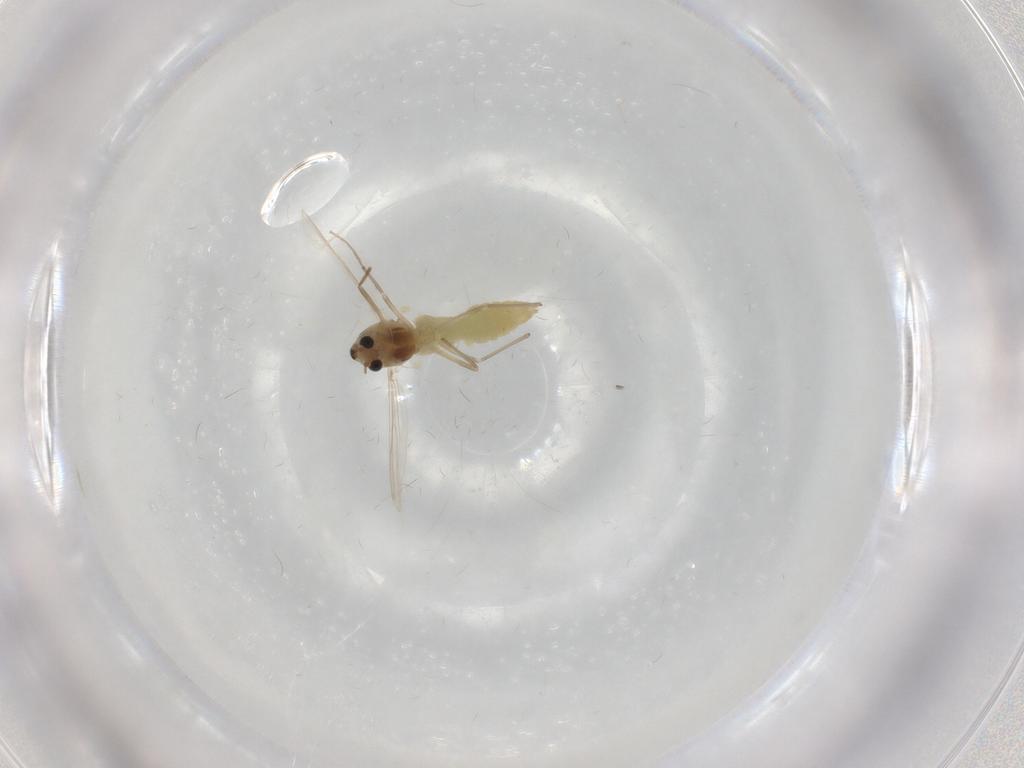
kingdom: Animalia
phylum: Arthropoda
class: Insecta
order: Diptera
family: Chironomidae
